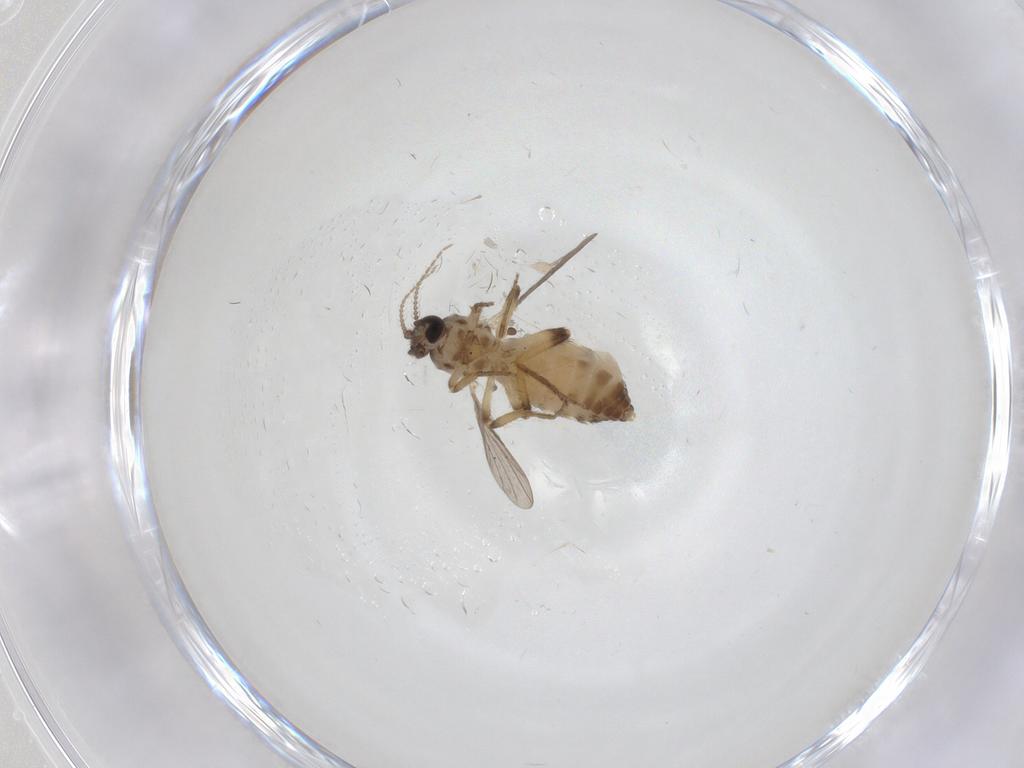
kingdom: Animalia
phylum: Arthropoda
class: Insecta
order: Diptera
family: Ceratopogonidae
